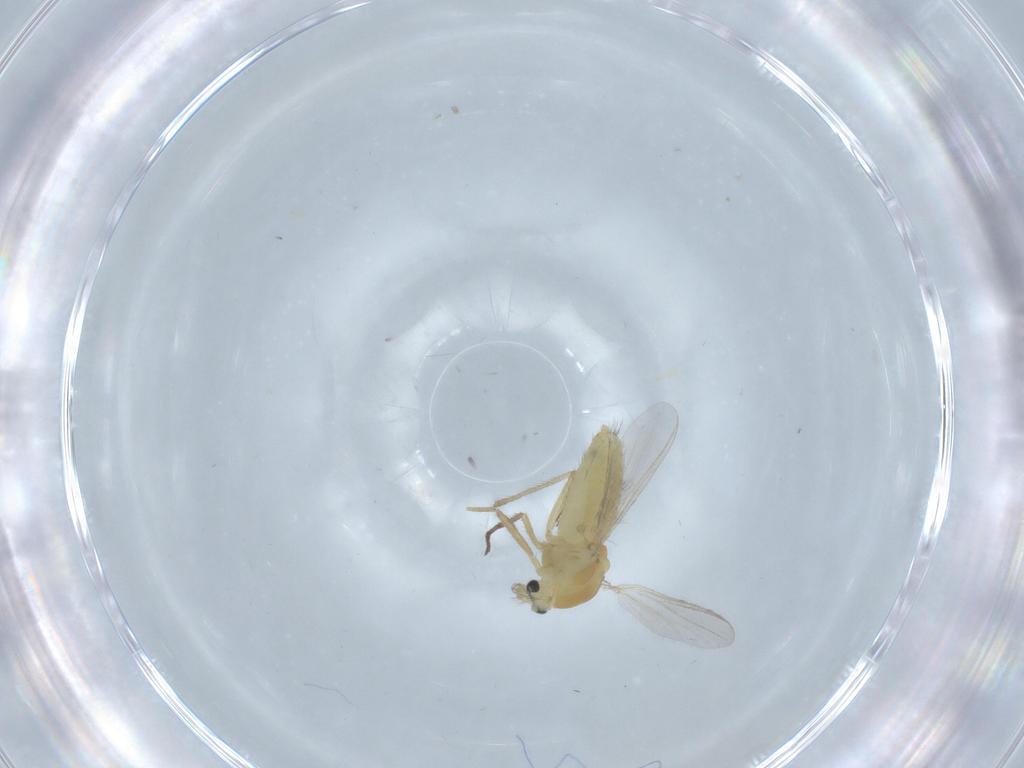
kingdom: Animalia
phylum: Arthropoda
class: Insecta
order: Diptera
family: Chironomidae
